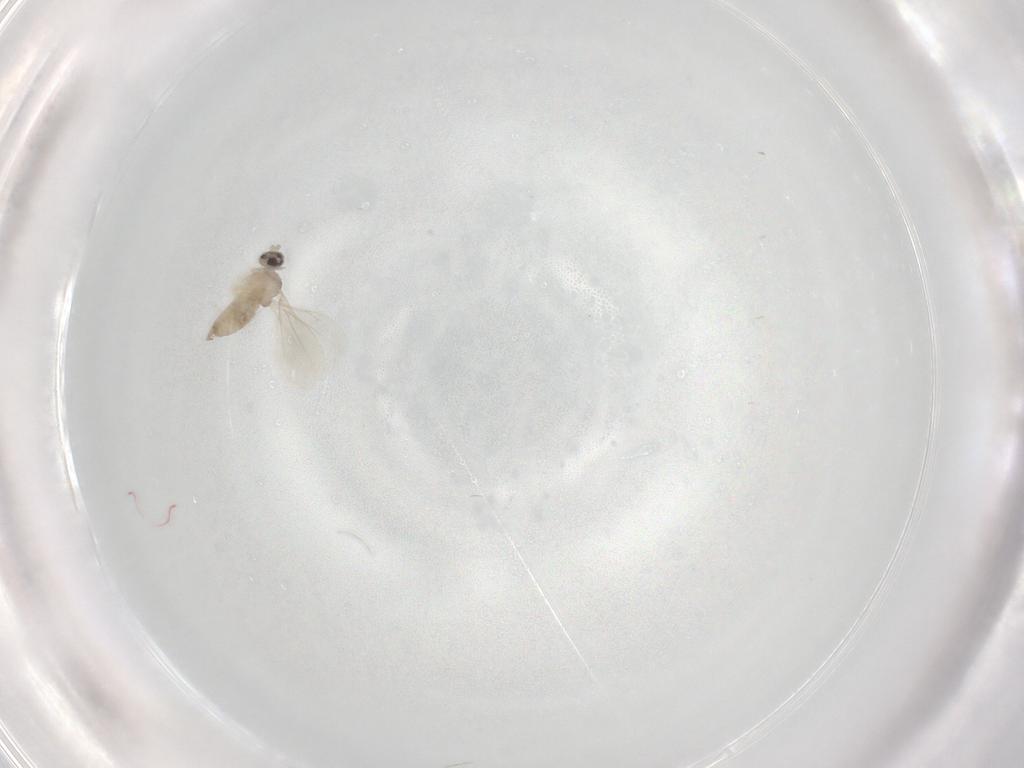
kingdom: Animalia
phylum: Arthropoda
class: Insecta
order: Diptera
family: Cecidomyiidae
